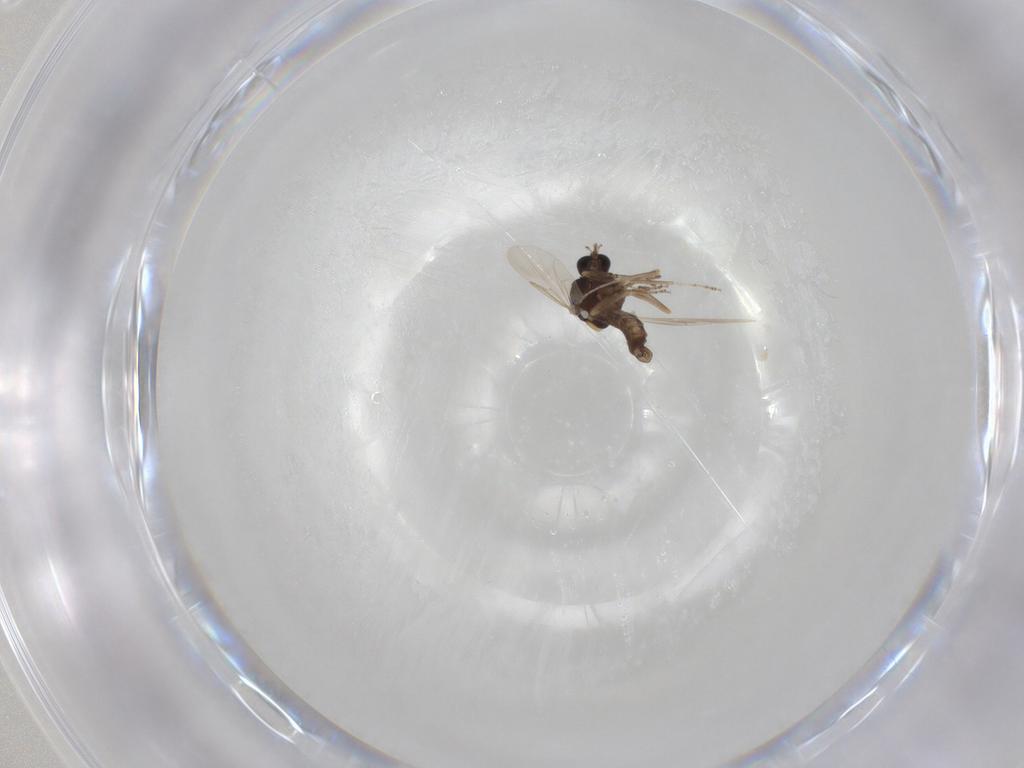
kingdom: Animalia
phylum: Arthropoda
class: Insecta
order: Diptera
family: Ceratopogonidae
